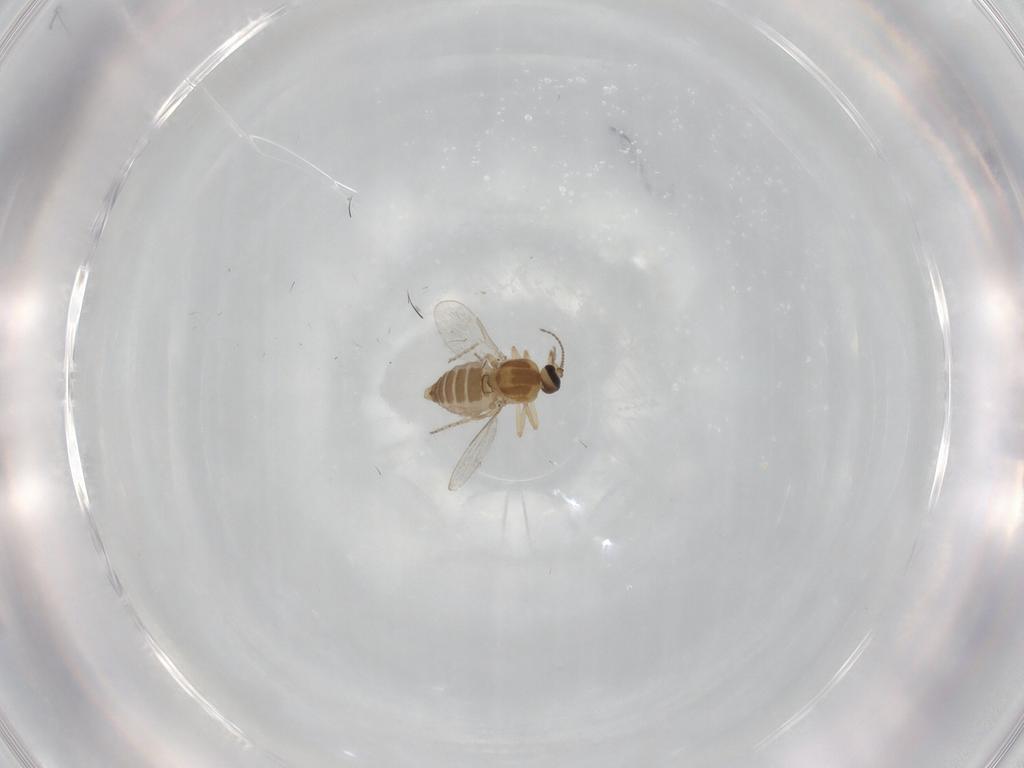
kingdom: Animalia
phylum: Arthropoda
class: Insecta
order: Diptera
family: Ceratopogonidae
